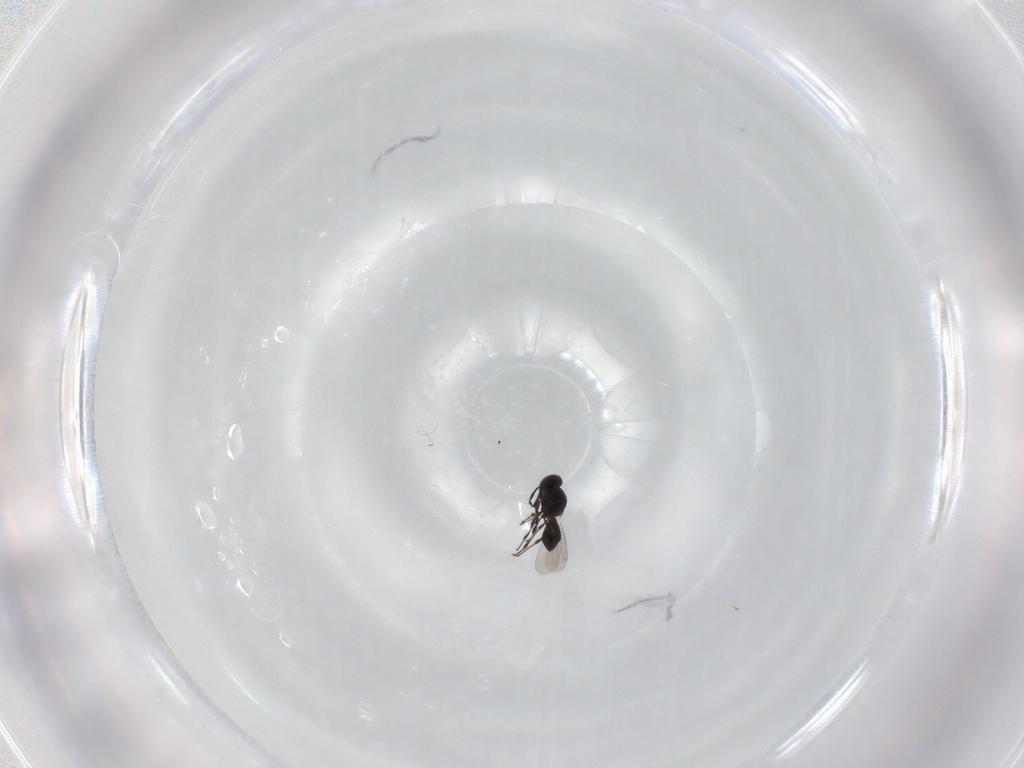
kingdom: Animalia
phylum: Arthropoda
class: Insecta
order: Hymenoptera
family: Platygastridae
